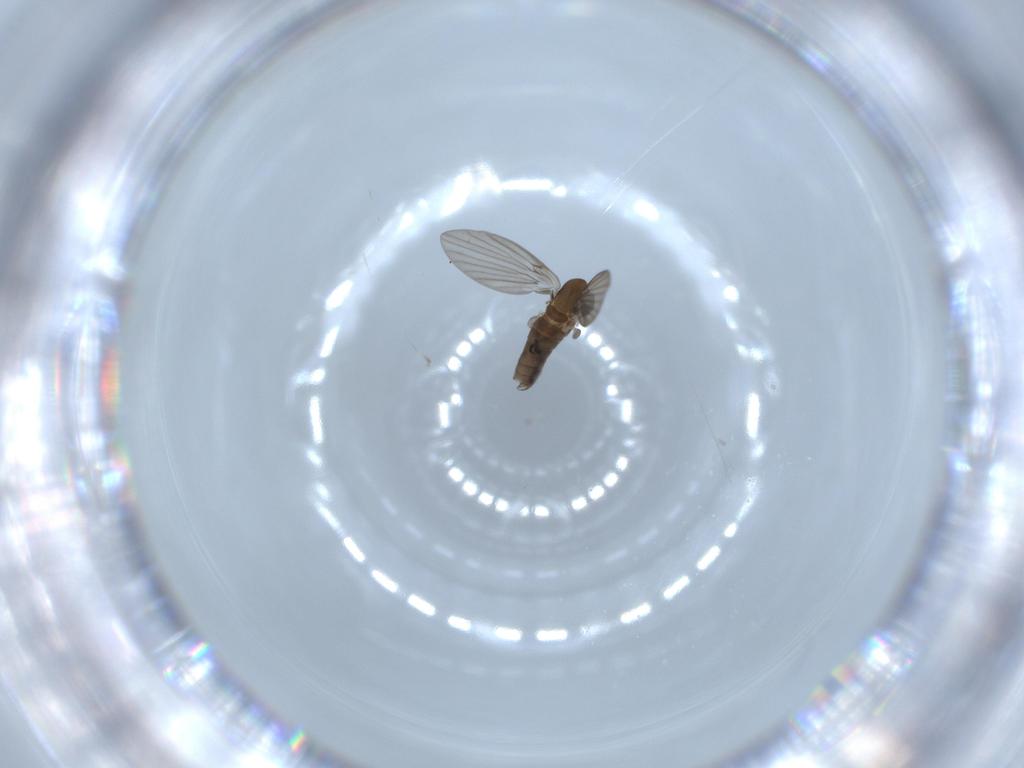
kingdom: Animalia
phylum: Arthropoda
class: Insecta
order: Diptera
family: Psychodidae
